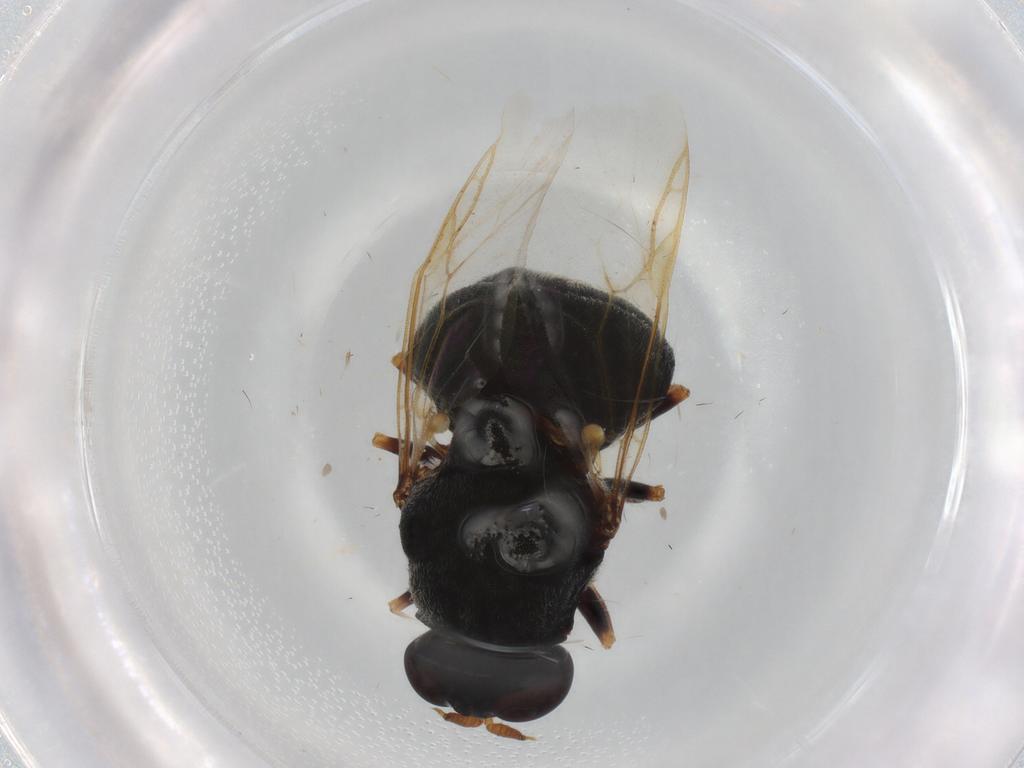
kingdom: Animalia
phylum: Arthropoda
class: Insecta
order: Diptera
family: Stratiomyidae
